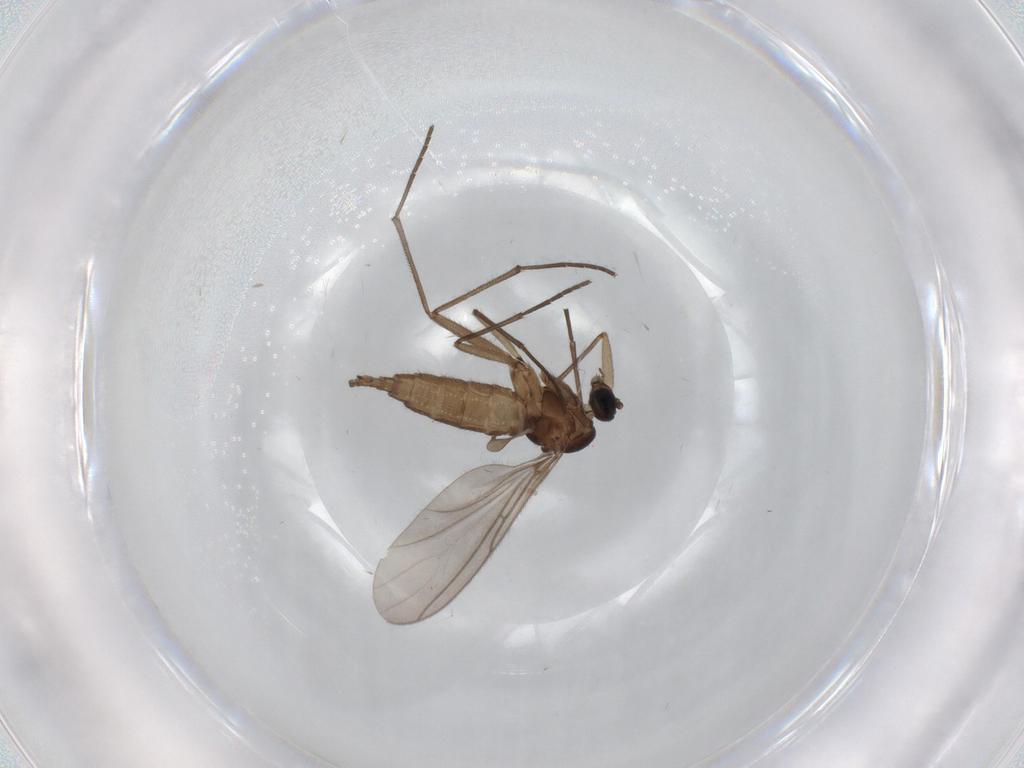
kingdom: Animalia
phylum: Arthropoda
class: Insecta
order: Diptera
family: Sciaridae
